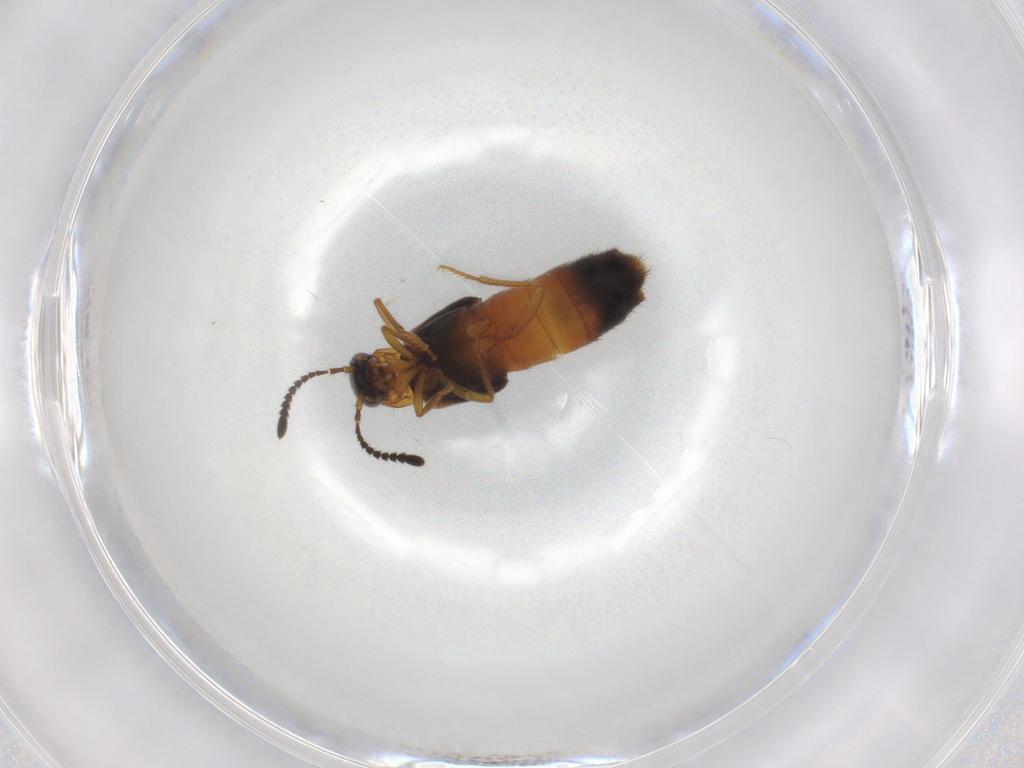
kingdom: Animalia
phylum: Arthropoda
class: Insecta
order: Coleoptera
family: Staphylinidae
